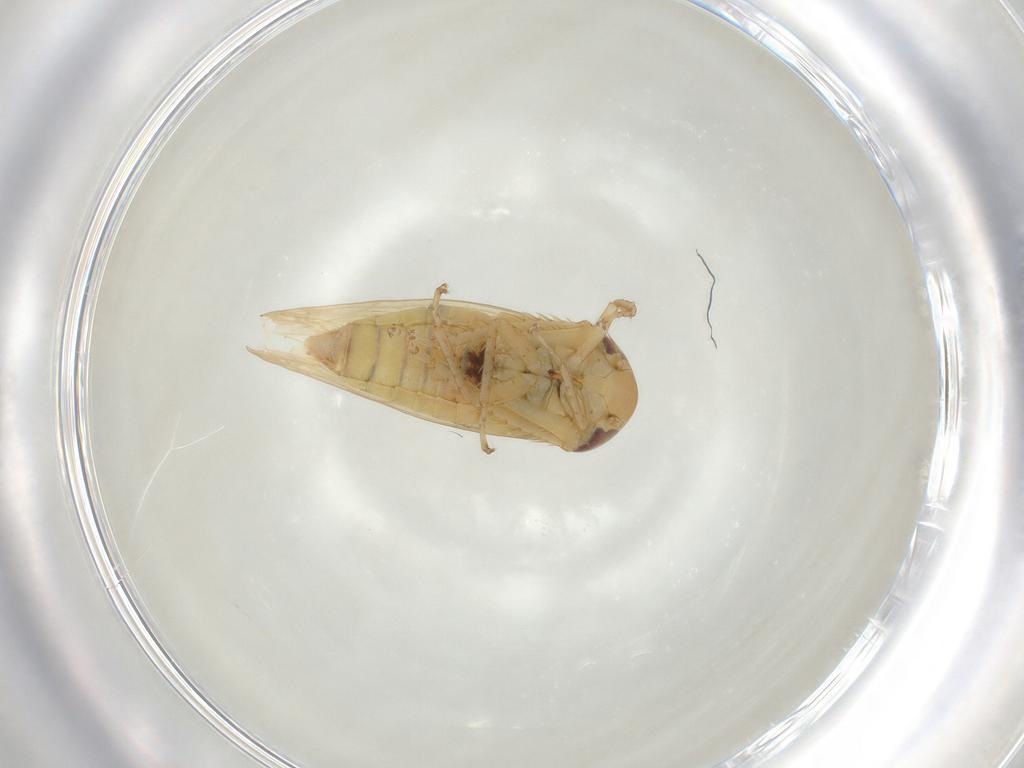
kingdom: Animalia
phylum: Arthropoda
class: Insecta
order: Hemiptera
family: Cicadellidae
